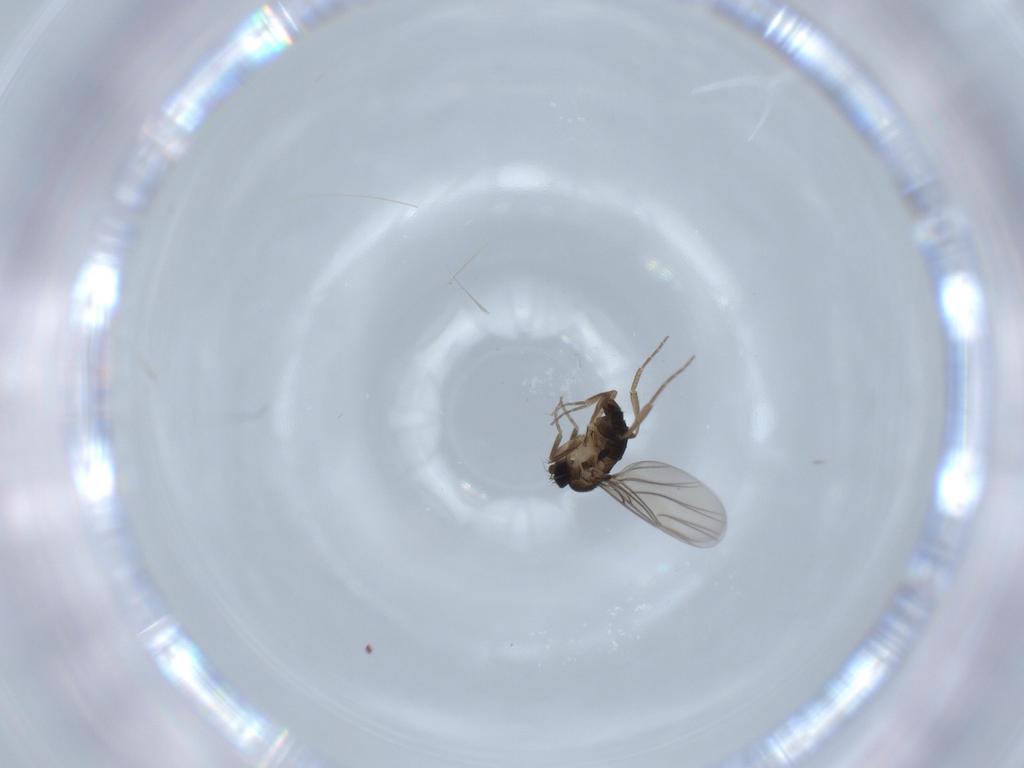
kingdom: Animalia
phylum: Arthropoda
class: Insecta
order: Diptera
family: Phoridae
